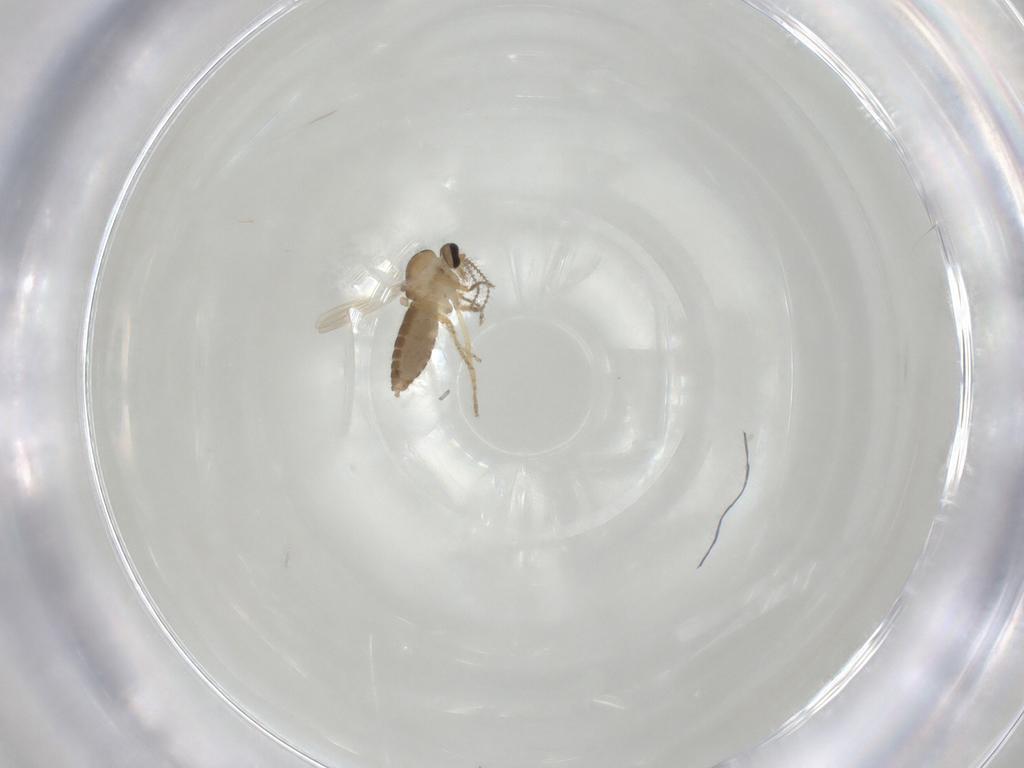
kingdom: Animalia
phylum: Arthropoda
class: Insecta
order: Diptera
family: Ceratopogonidae
